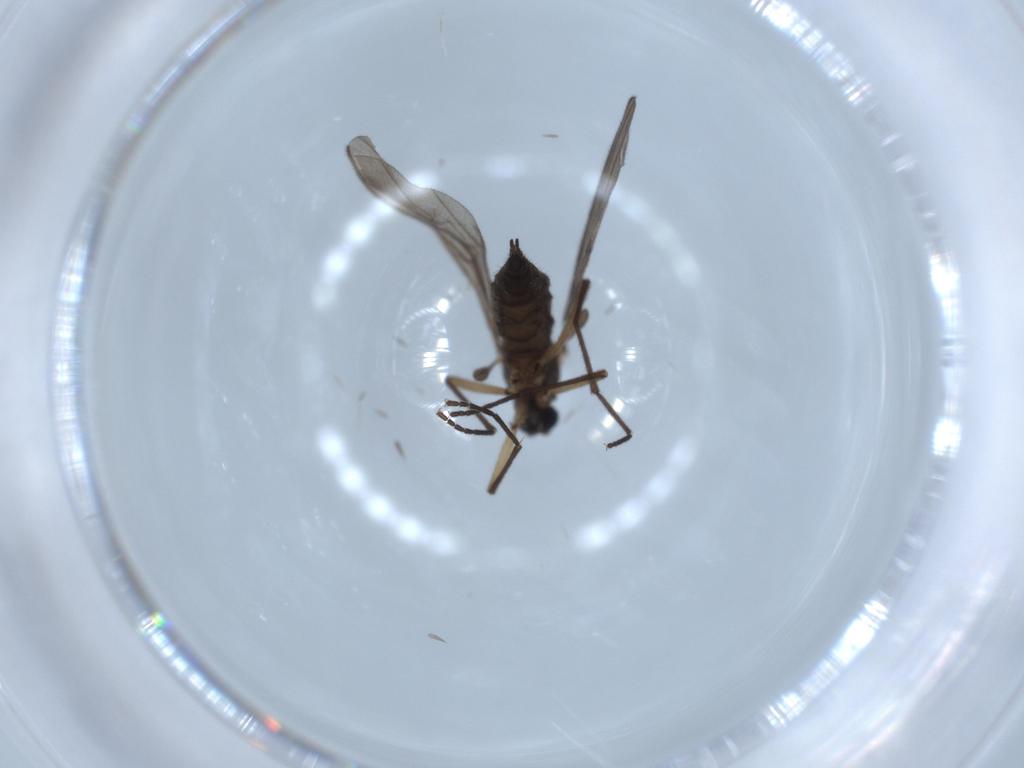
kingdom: Animalia
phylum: Arthropoda
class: Insecta
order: Diptera
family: Sciaridae
